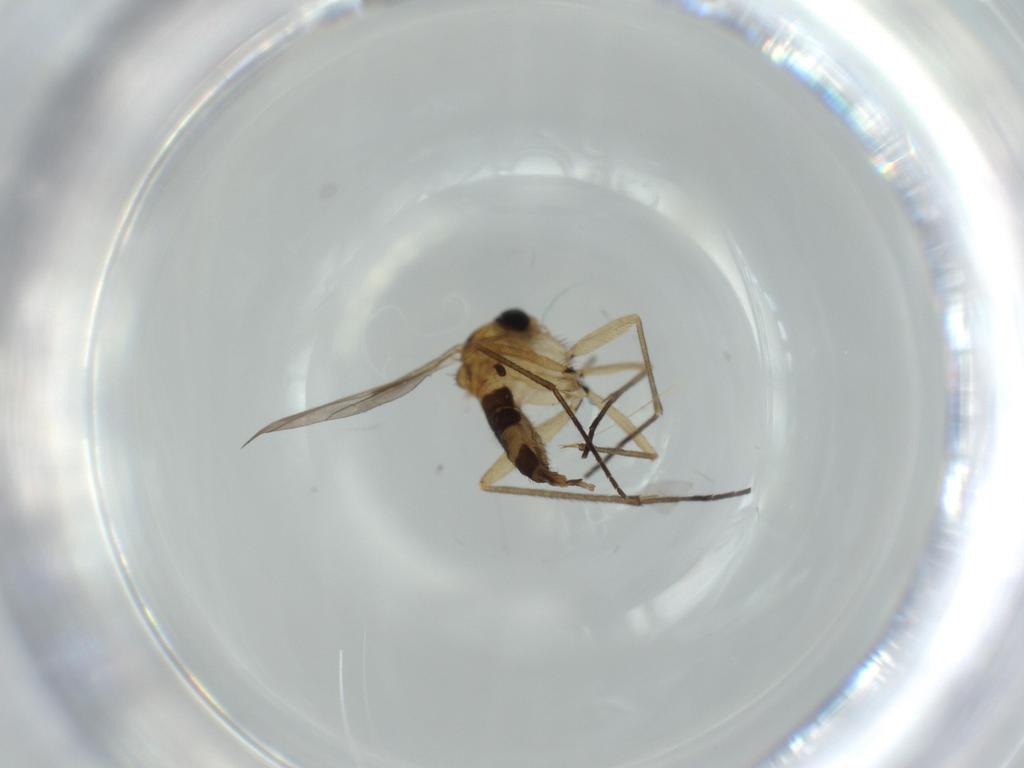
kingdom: Animalia
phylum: Arthropoda
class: Insecta
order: Diptera
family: Sciaridae
